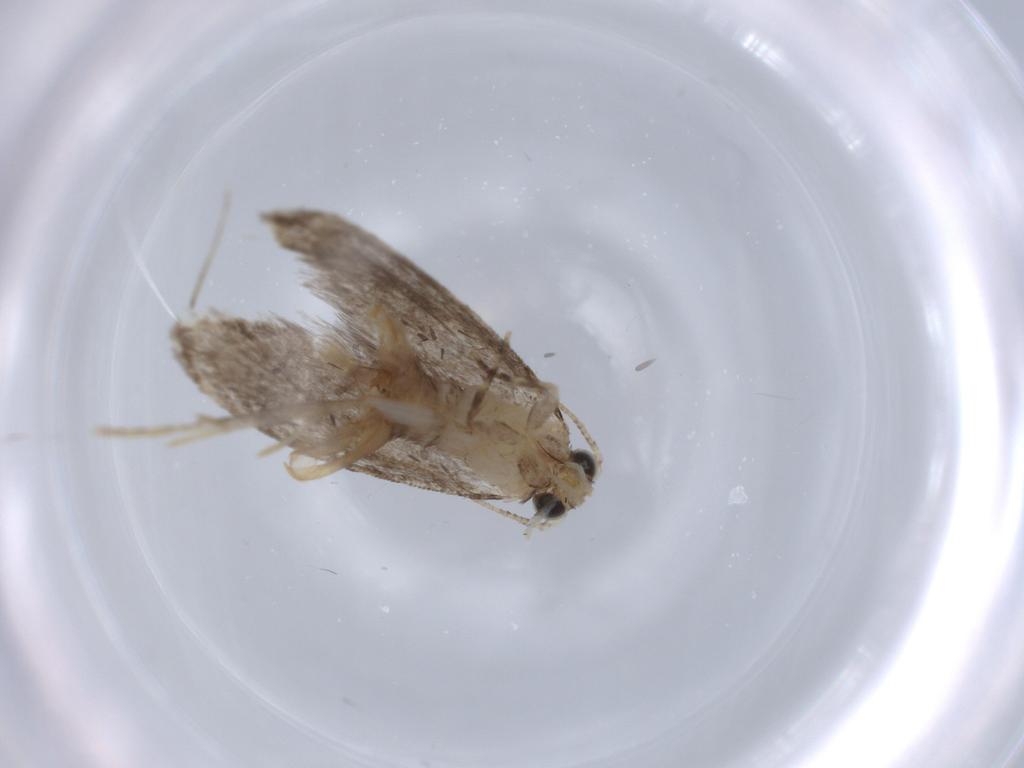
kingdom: Animalia
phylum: Arthropoda
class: Insecta
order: Lepidoptera
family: Tineidae
